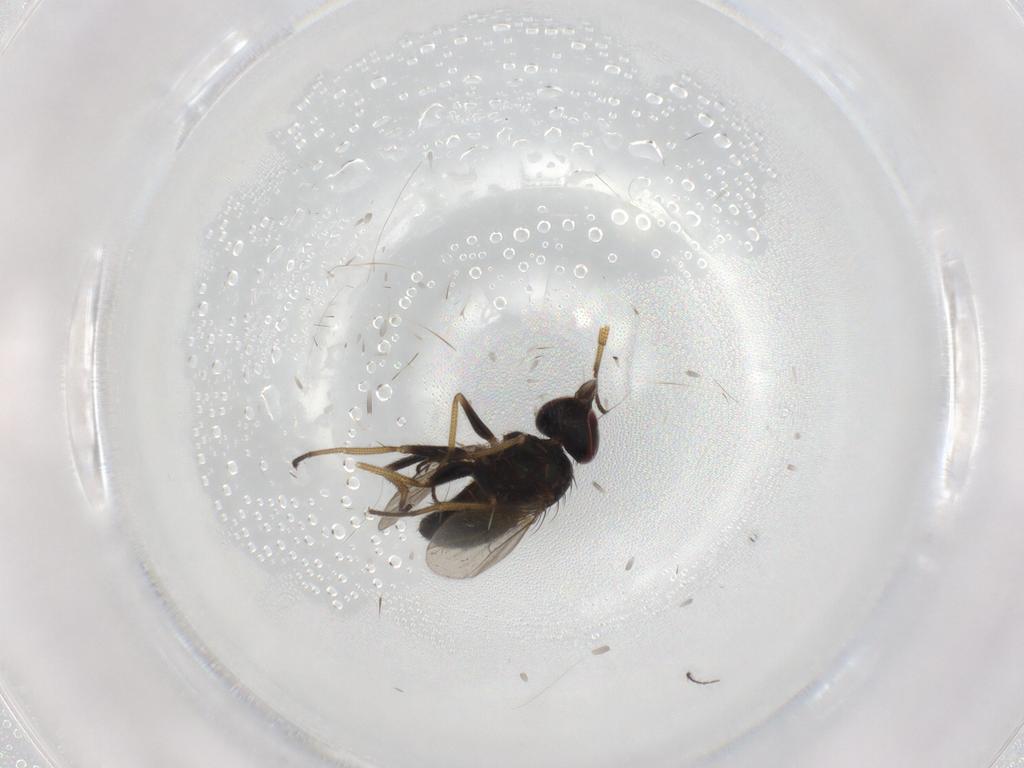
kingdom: Animalia
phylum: Arthropoda
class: Insecta
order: Diptera
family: Dolichopodidae
